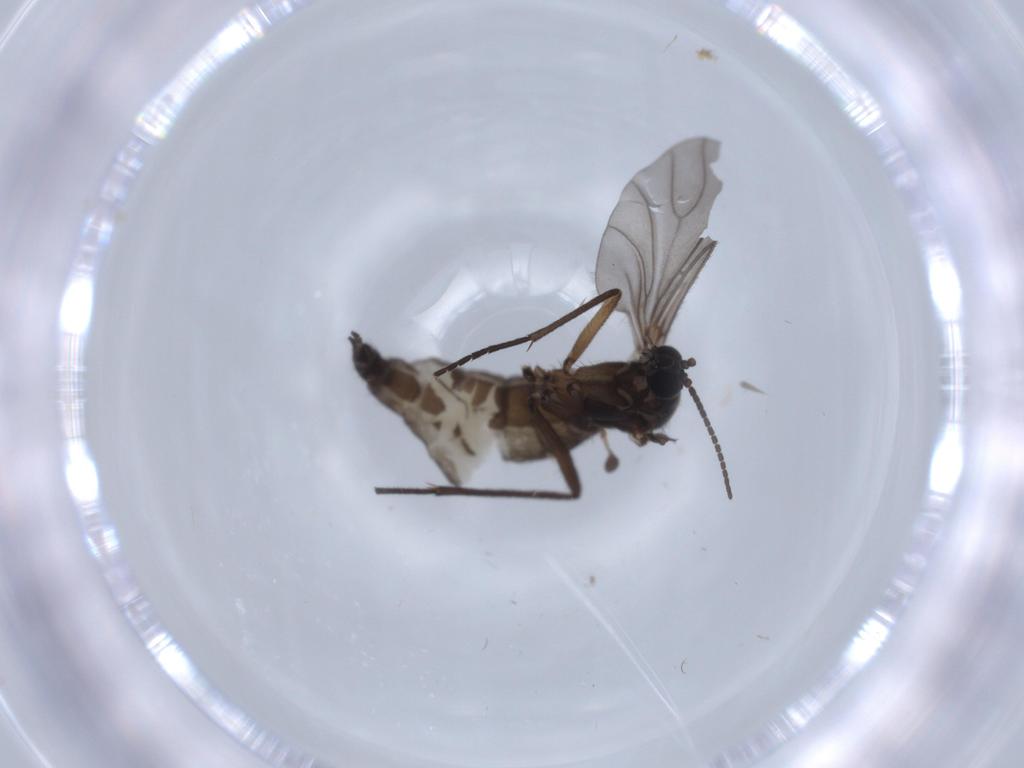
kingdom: Animalia
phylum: Arthropoda
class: Insecta
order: Diptera
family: Sciaridae
